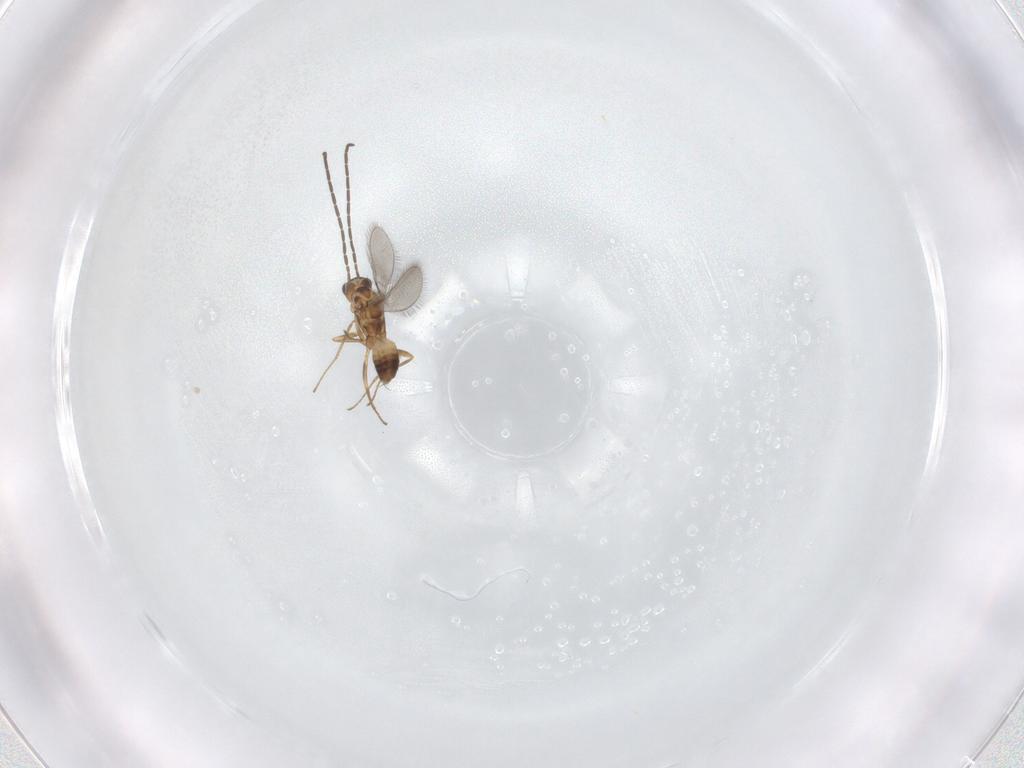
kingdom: Animalia
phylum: Arthropoda
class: Insecta
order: Hymenoptera
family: Mymaridae
